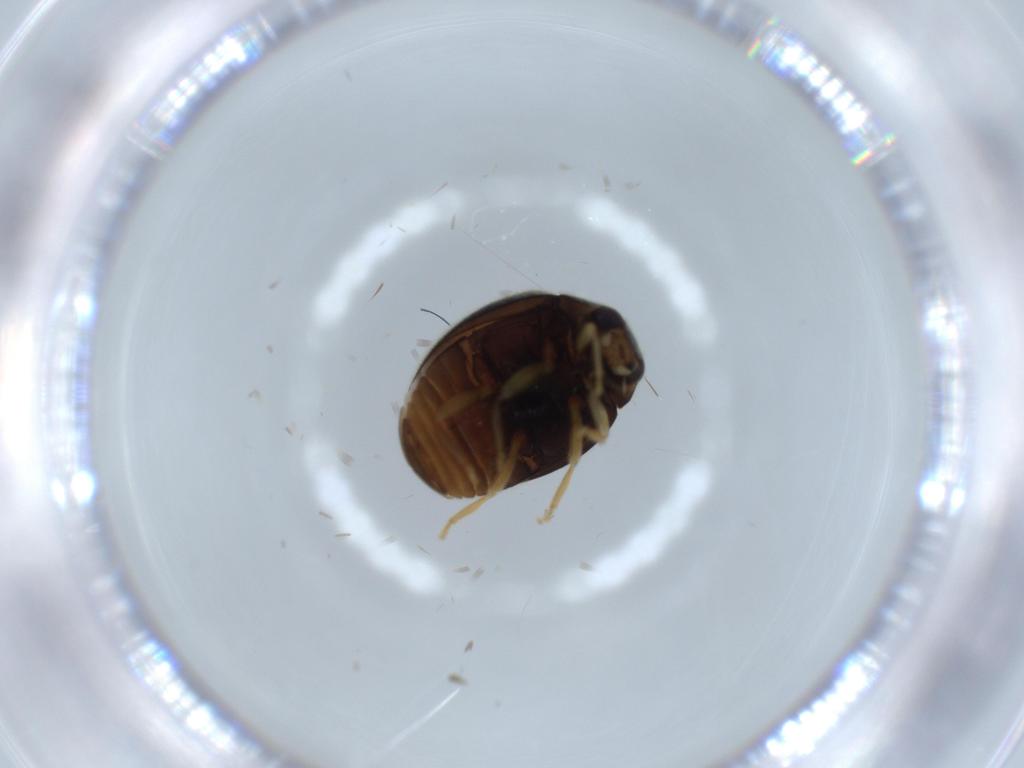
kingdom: Animalia
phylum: Arthropoda
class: Insecta
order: Coleoptera
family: Coccinellidae
